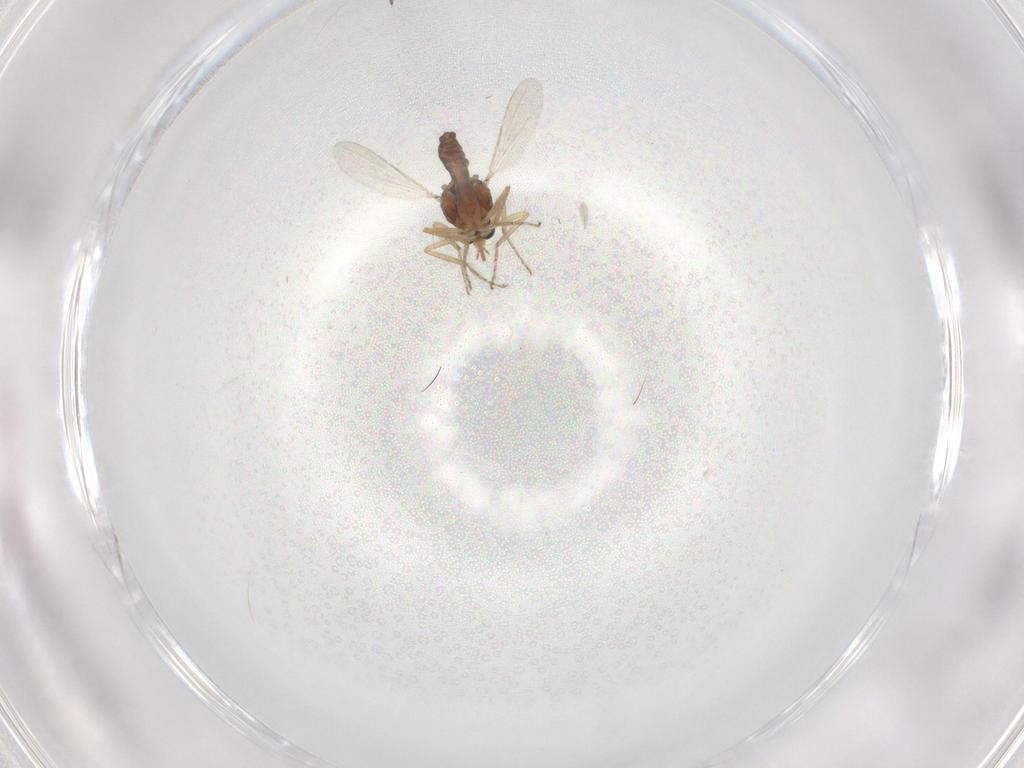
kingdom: Animalia
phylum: Arthropoda
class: Insecta
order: Diptera
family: Ceratopogonidae
